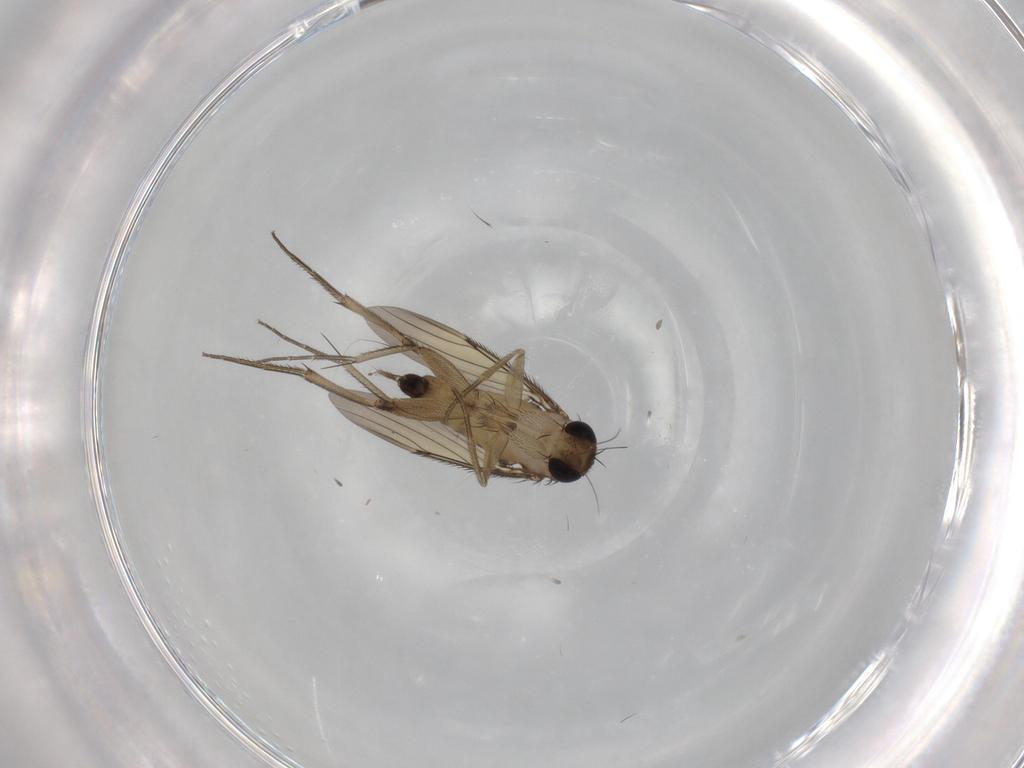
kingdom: Animalia
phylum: Arthropoda
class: Insecta
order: Diptera
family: Phoridae
